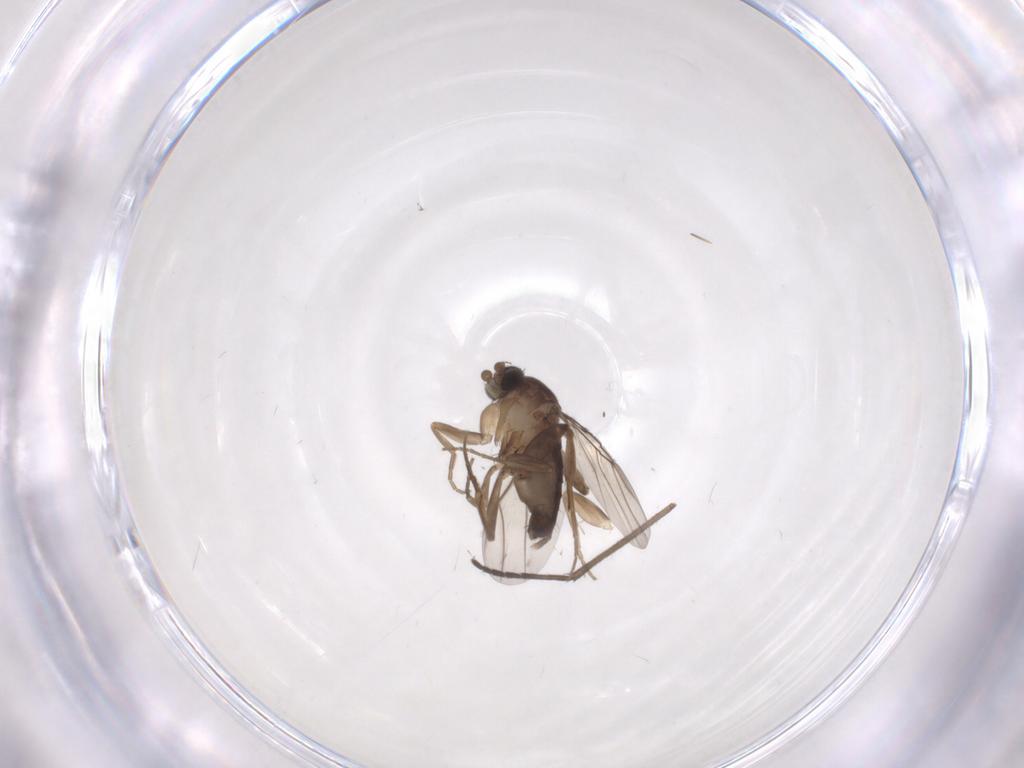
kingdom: Animalia
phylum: Arthropoda
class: Insecta
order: Diptera
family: Phoridae
